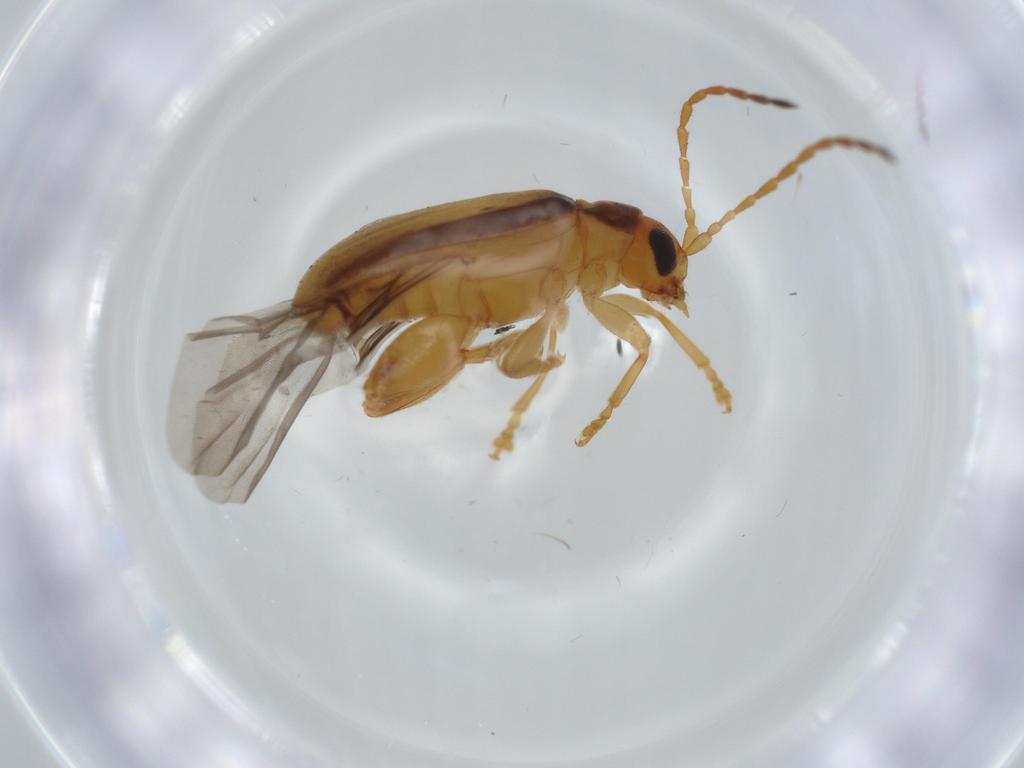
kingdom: Animalia
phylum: Arthropoda
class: Insecta
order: Coleoptera
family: Chrysomelidae
